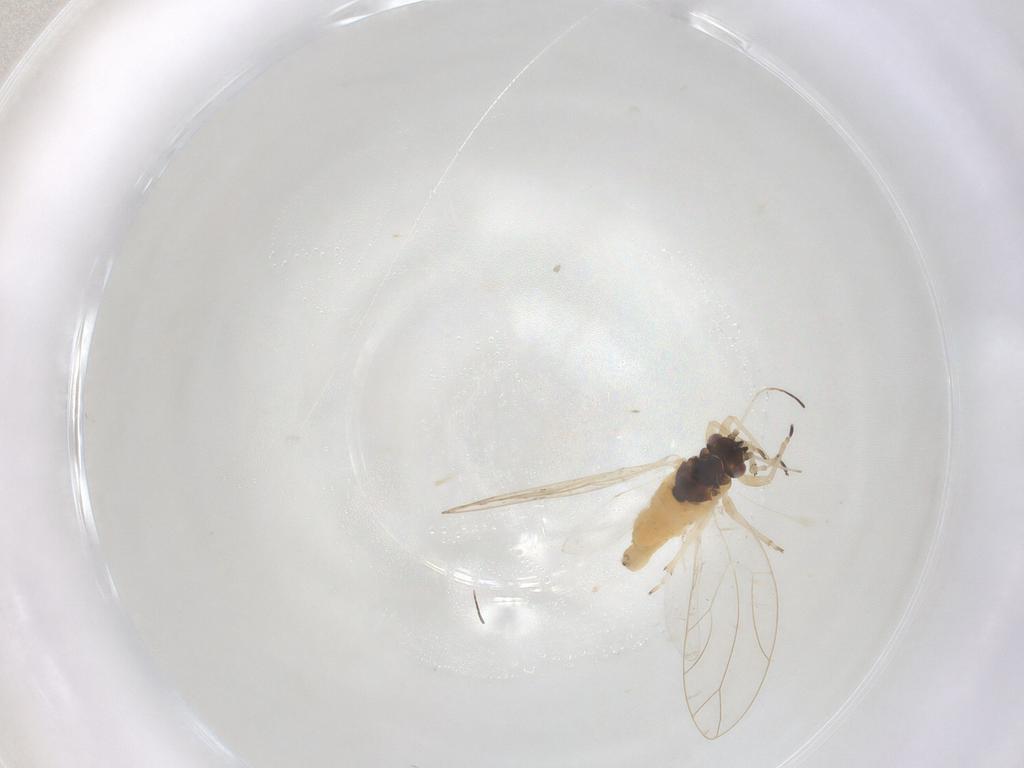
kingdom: Animalia
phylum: Arthropoda
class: Insecta
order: Hemiptera
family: Triozidae
